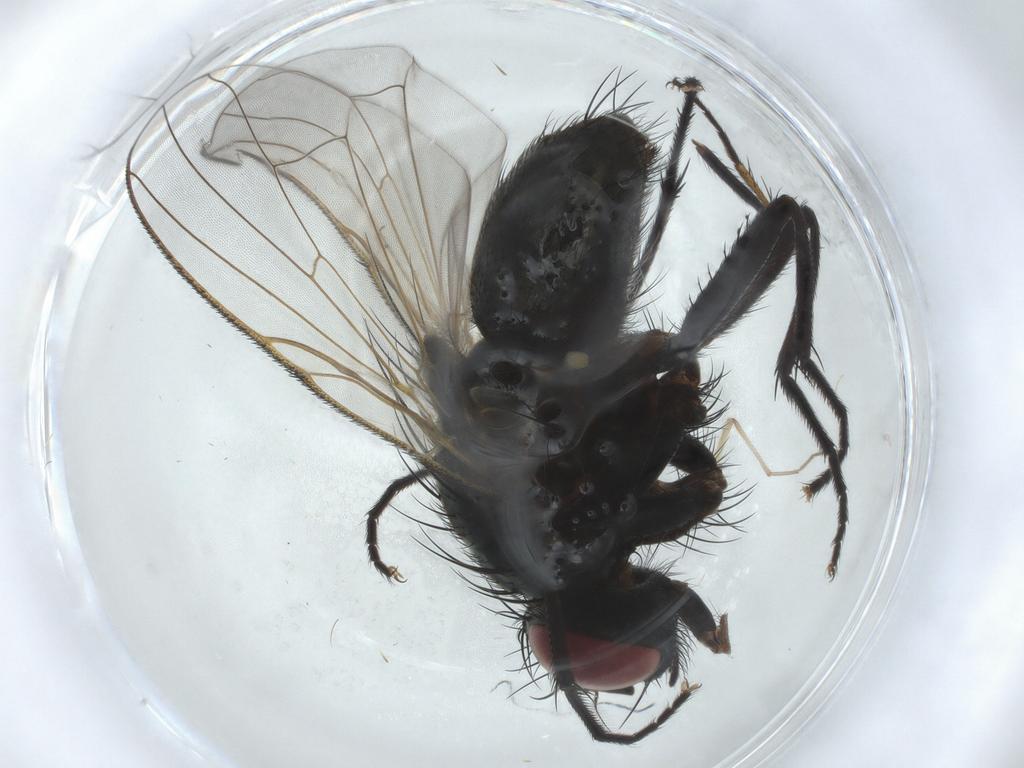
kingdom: Animalia
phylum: Arthropoda
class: Insecta
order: Diptera
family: Muscidae
